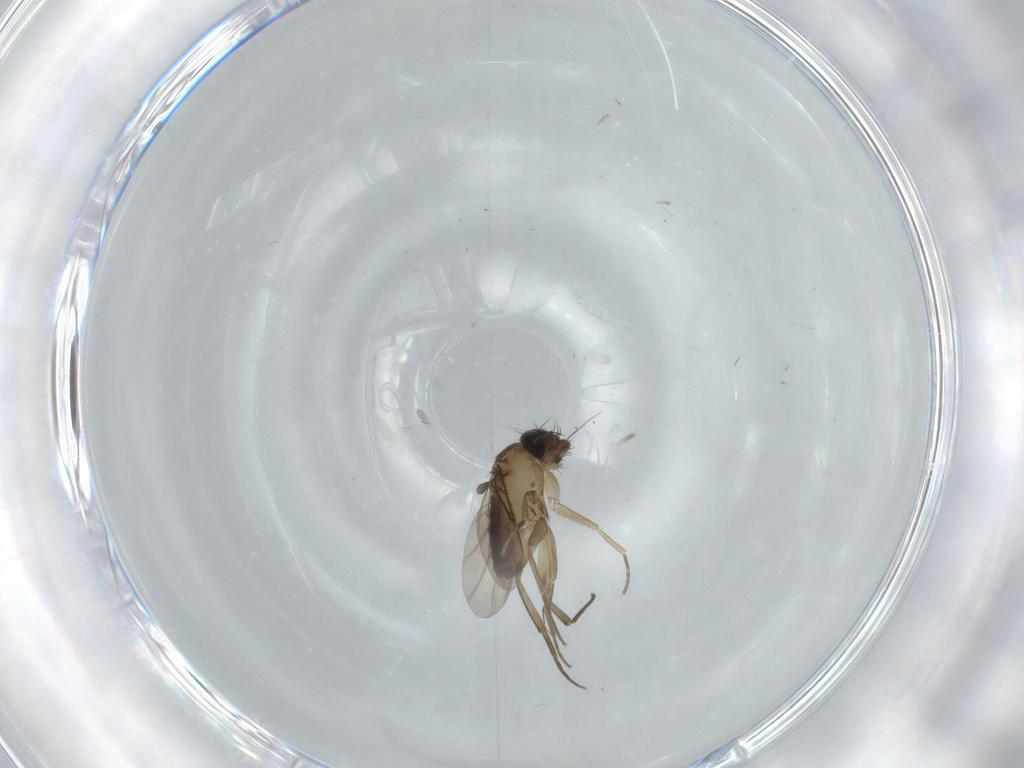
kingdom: Animalia
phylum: Arthropoda
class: Insecta
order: Diptera
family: Phoridae
